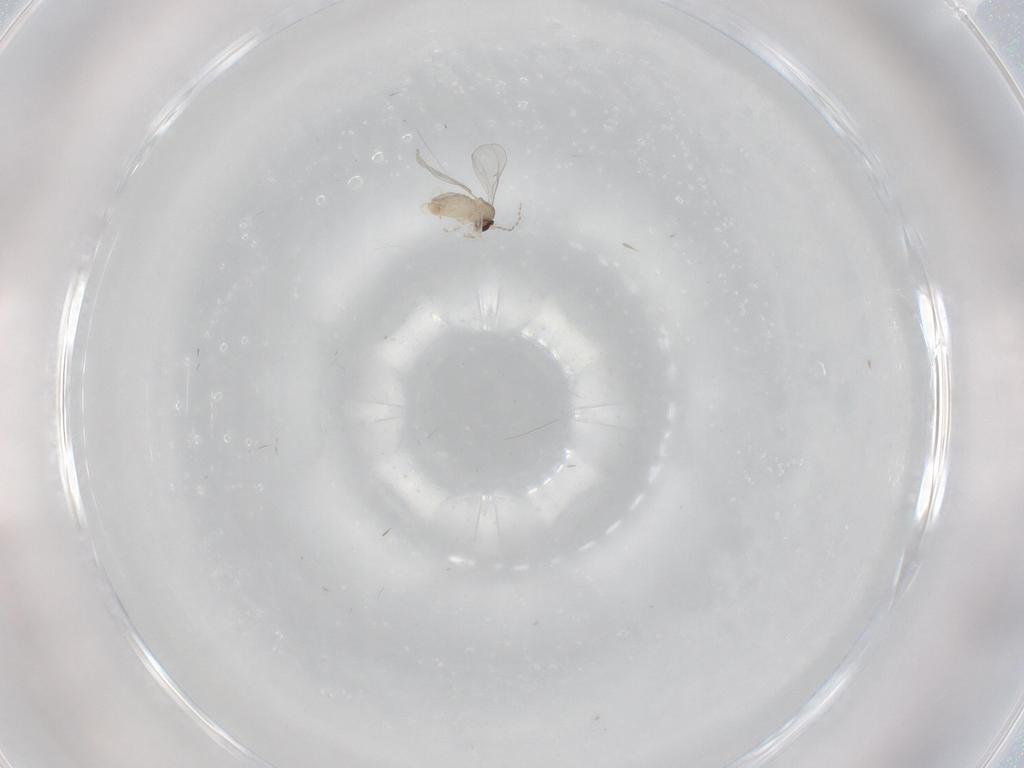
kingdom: Animalia
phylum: Arthropoda
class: Insecta
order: Diptera
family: Cecidomyiidae
